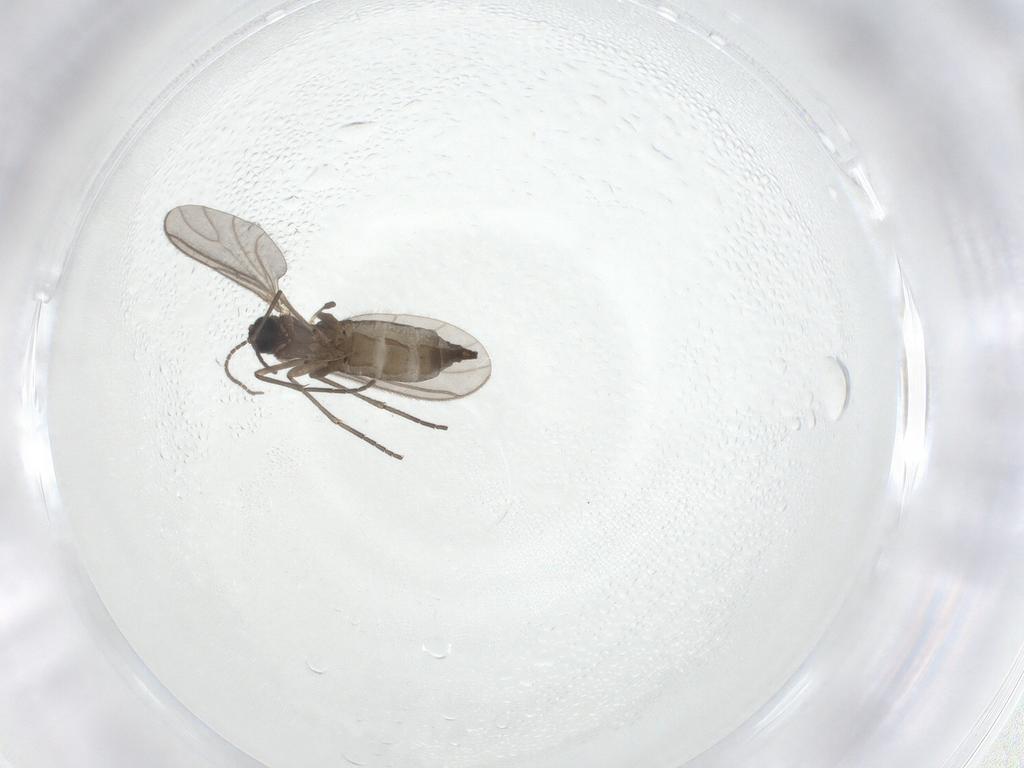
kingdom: Animalia
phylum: Arthropoda
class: Insecta
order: Diptera
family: Sciaridae
